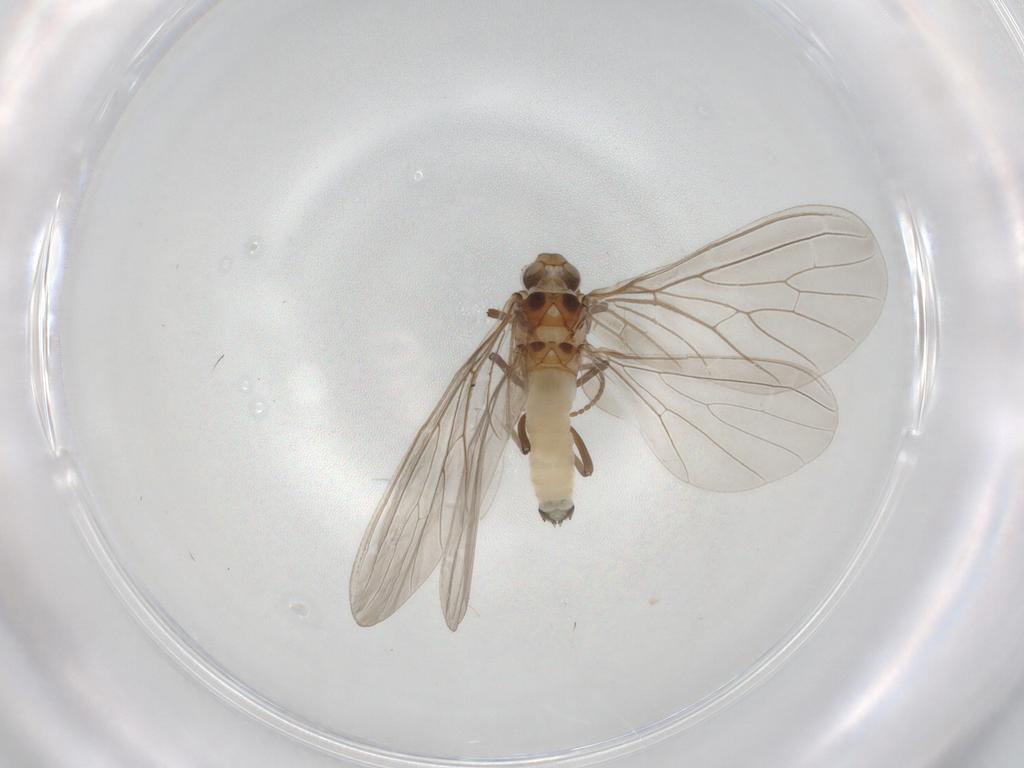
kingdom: Animalia
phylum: Arthropoda
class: Insecta
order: Neuroptera
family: Coniopterygidae
